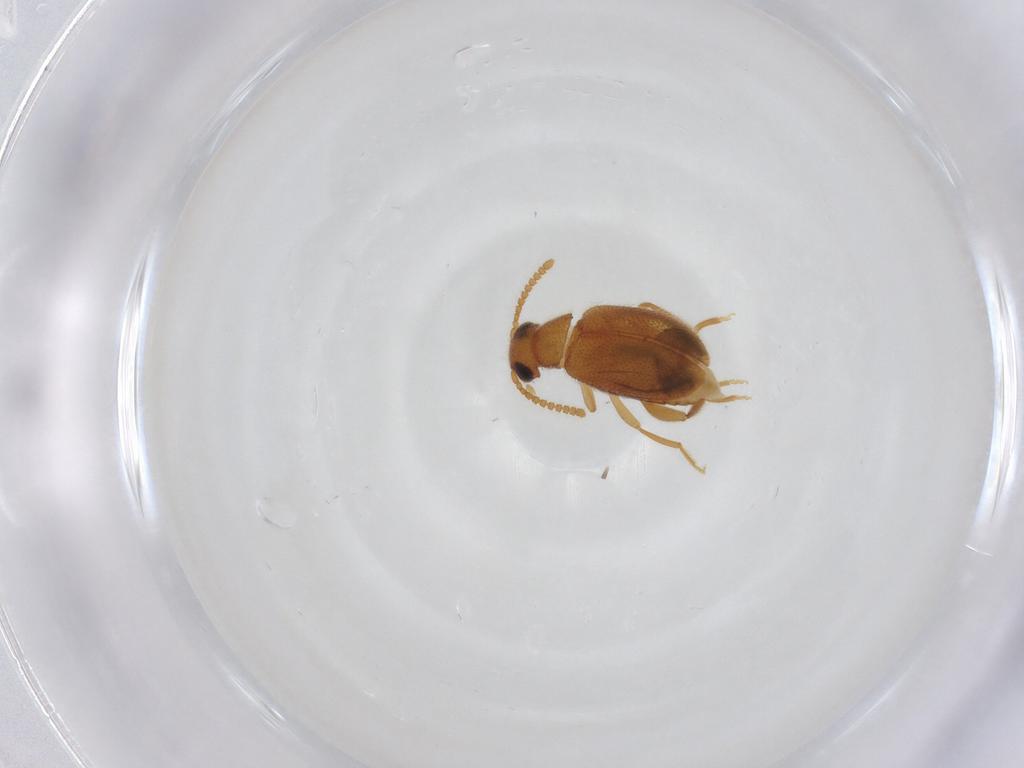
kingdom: Animalia
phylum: Arthropoda
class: Insecta
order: Coleoptera
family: Aderidae
